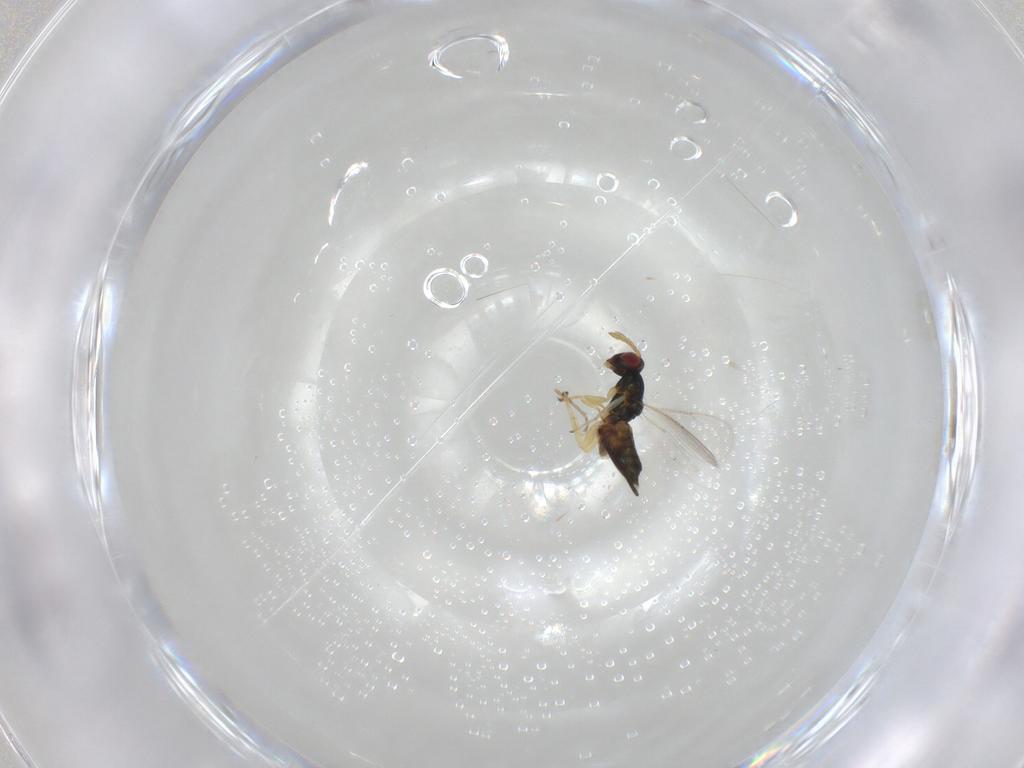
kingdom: Animalia
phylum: Arthropoda
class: Insecta
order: Hymenoptera
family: Eulophidae
